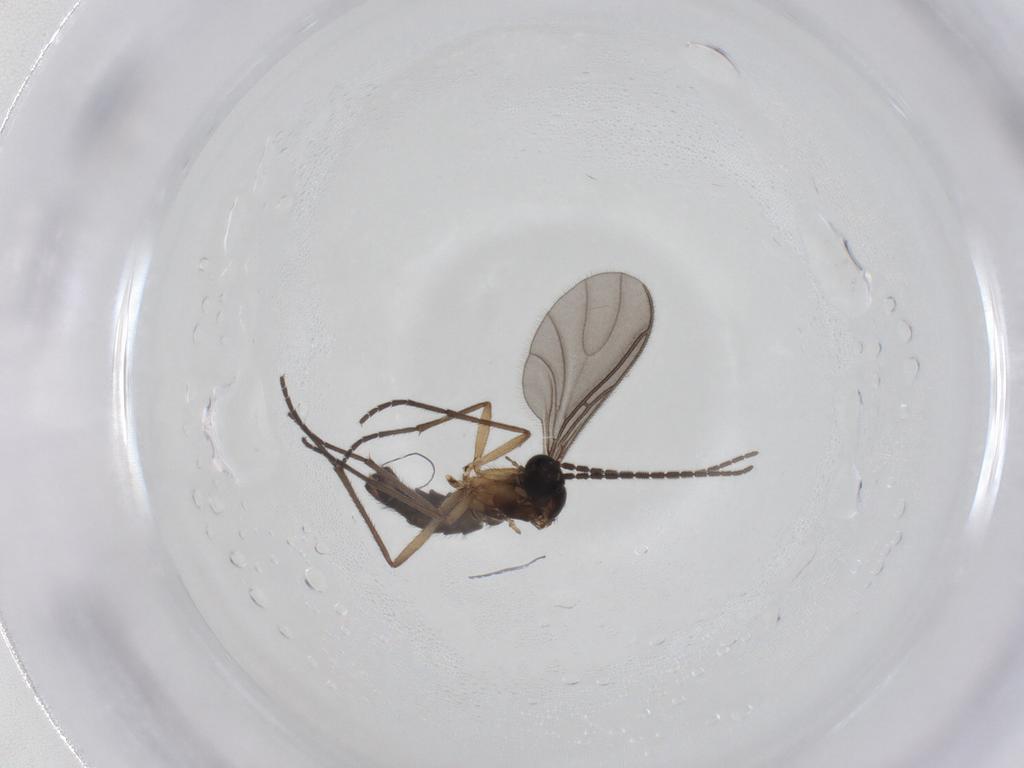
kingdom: Animalia
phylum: Arthropoda
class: Insecta
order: Diptera
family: Sciaridae
